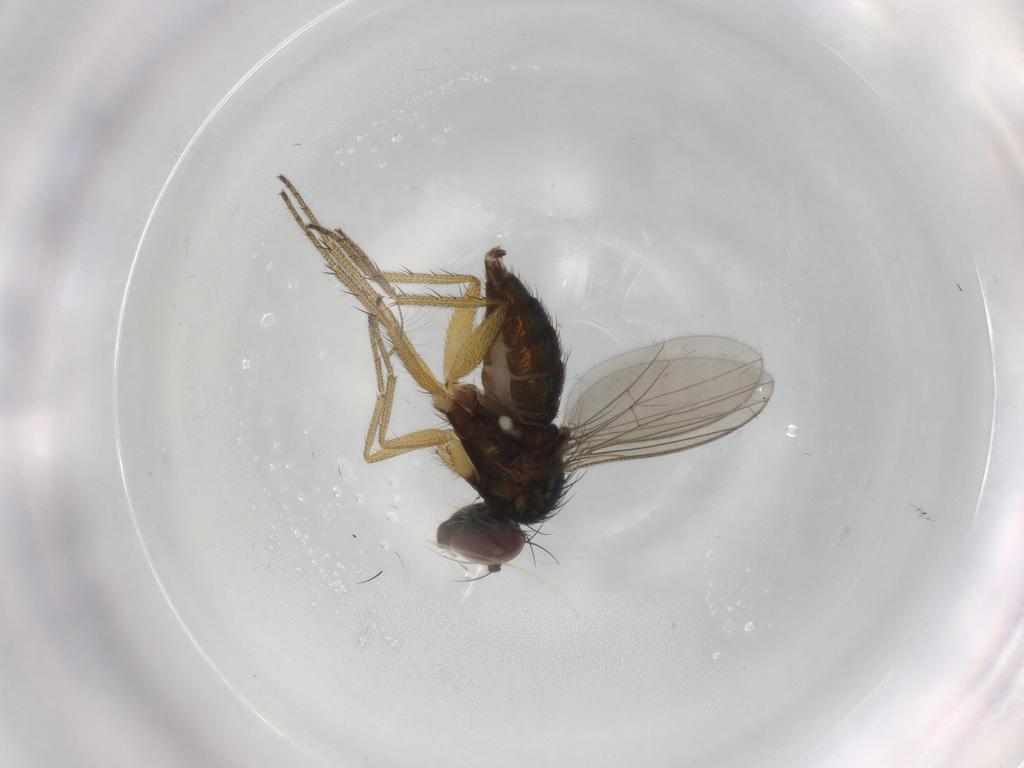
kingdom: Animalia
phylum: Arthropoda
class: Insecta
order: Diptera
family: Dolichopodidae
